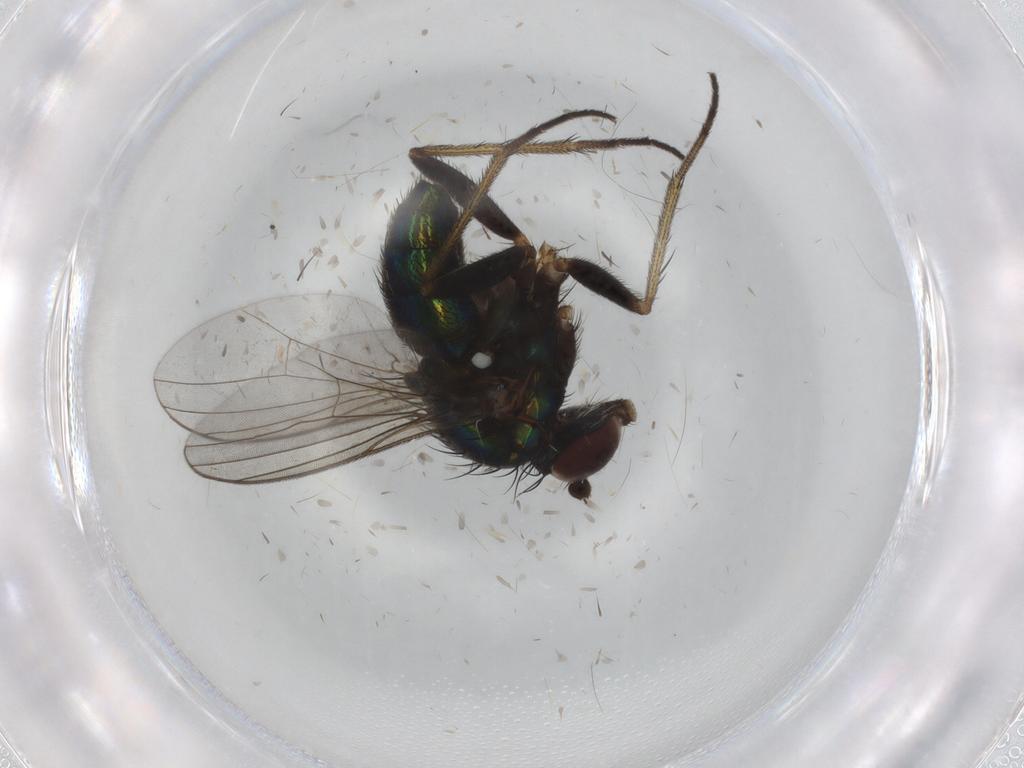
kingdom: Animalia
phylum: Arthropoda
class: Insecta
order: Diptera
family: Dolichopodidae
